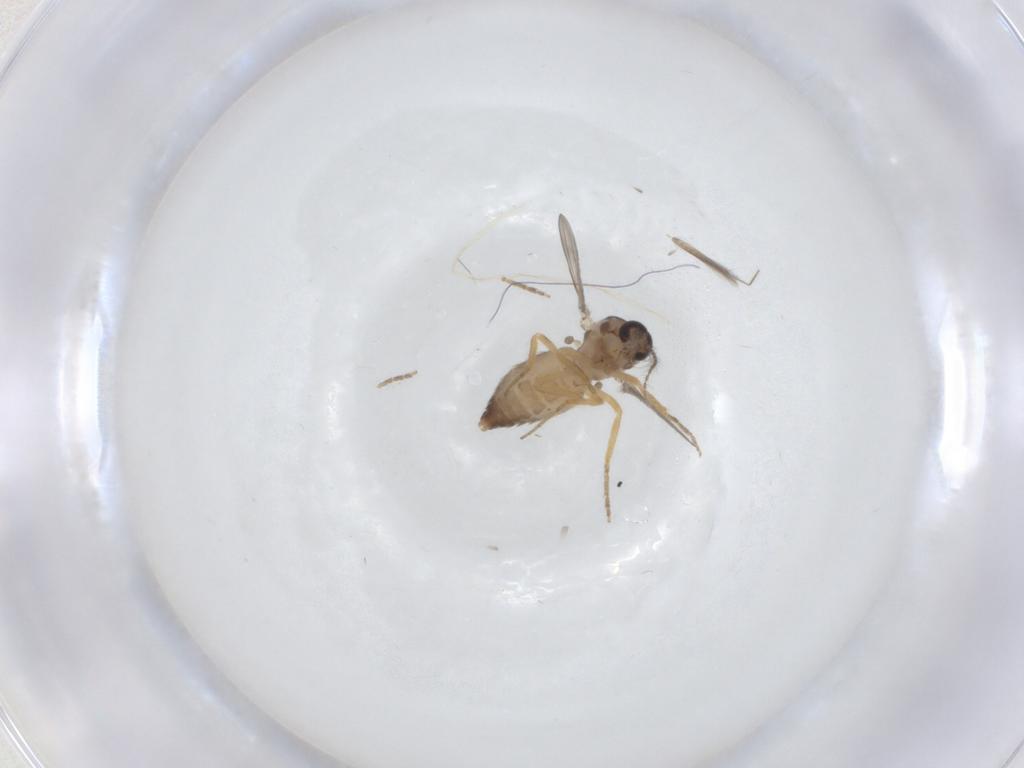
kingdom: Animalia
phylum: Arthropoda
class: Insecta
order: Diptera
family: Ceratopogonidae
